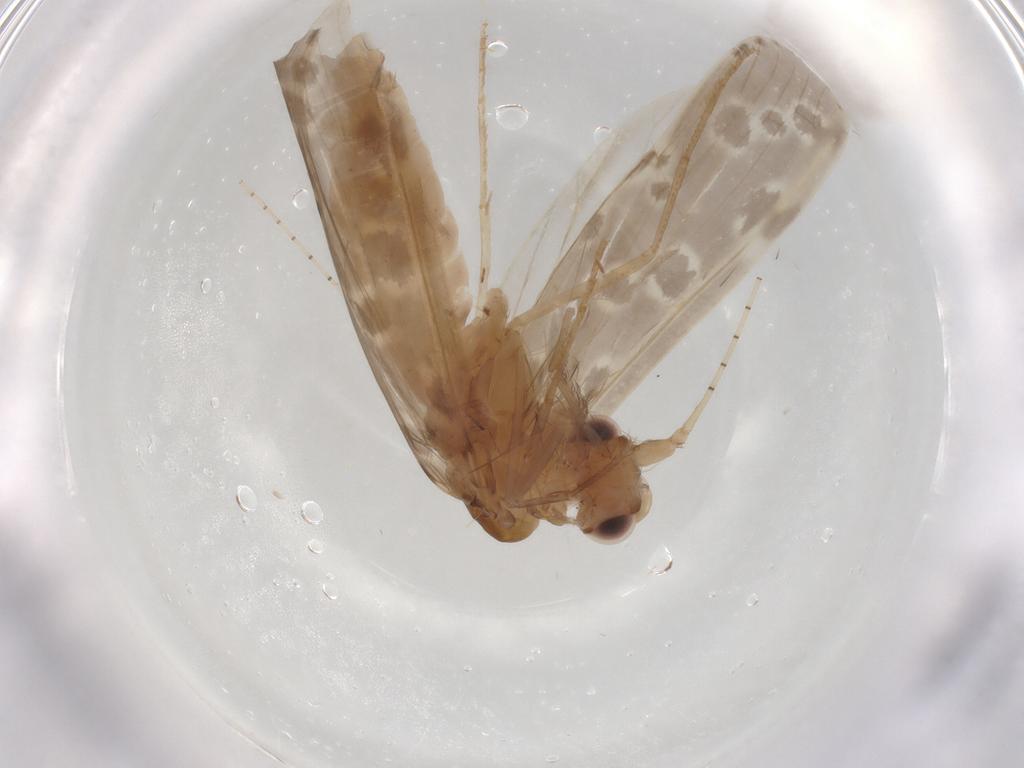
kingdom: Animalia
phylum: Arthropoda
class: Insecta
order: Trichoptera
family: Leptoceridae
